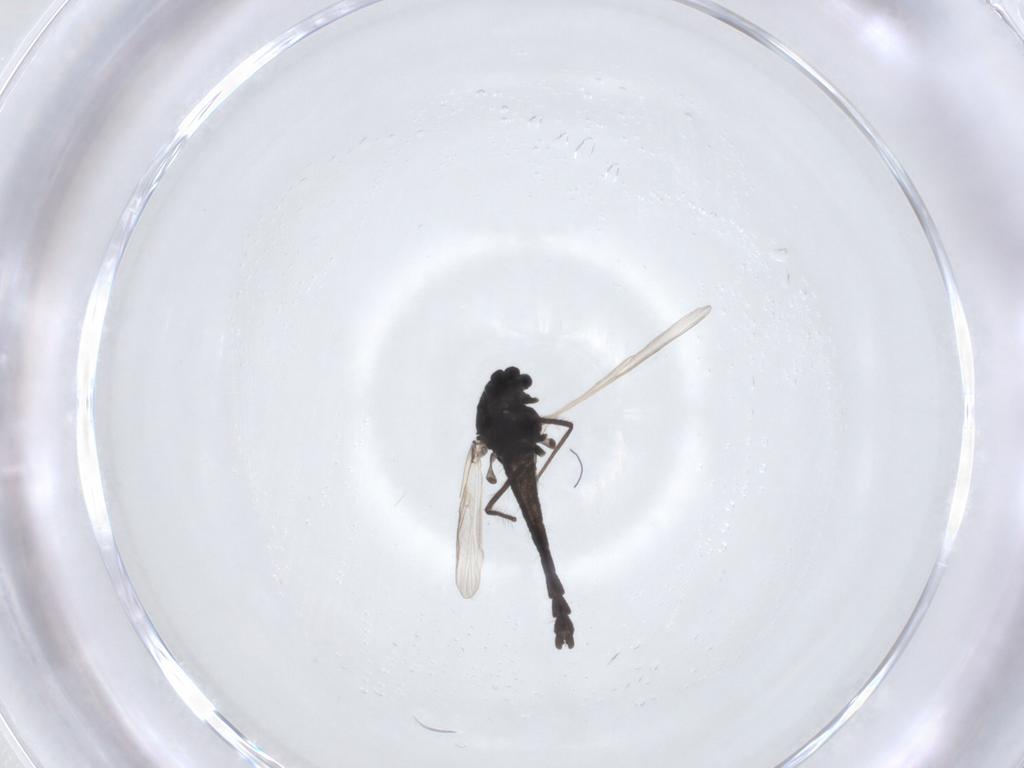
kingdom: Animalia
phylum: Arthropoda
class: Insecta
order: Diptera
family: Chironomidae
